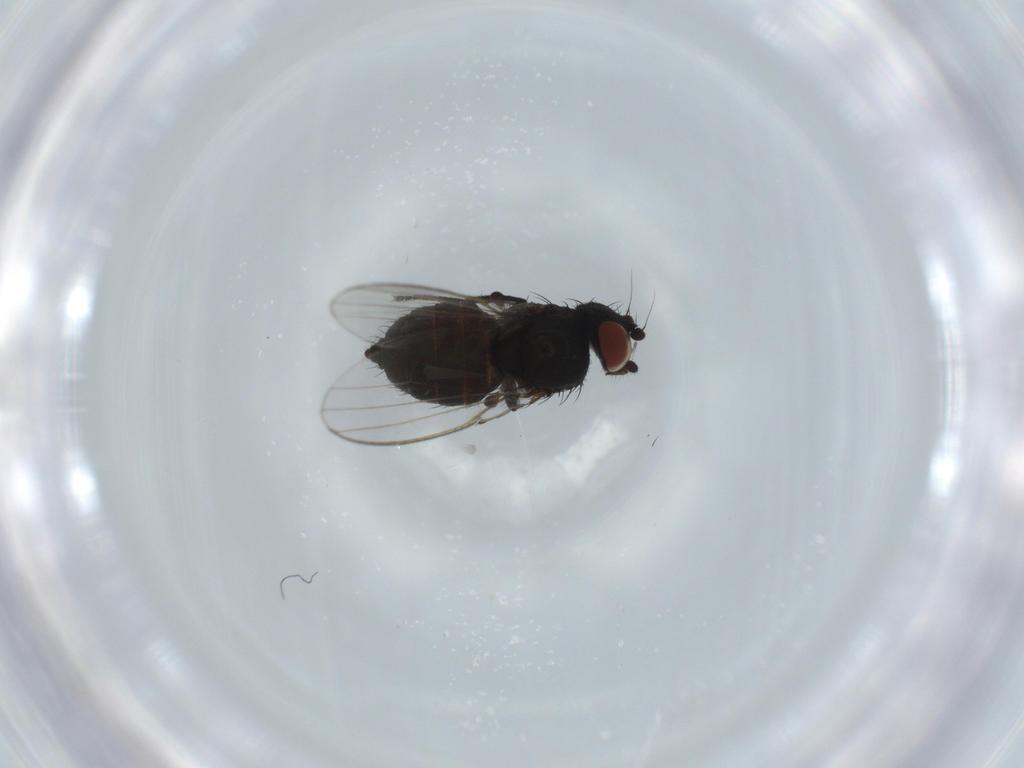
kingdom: Animalia
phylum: Arthropoda
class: Insecta
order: Diptera
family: Milichiidae
